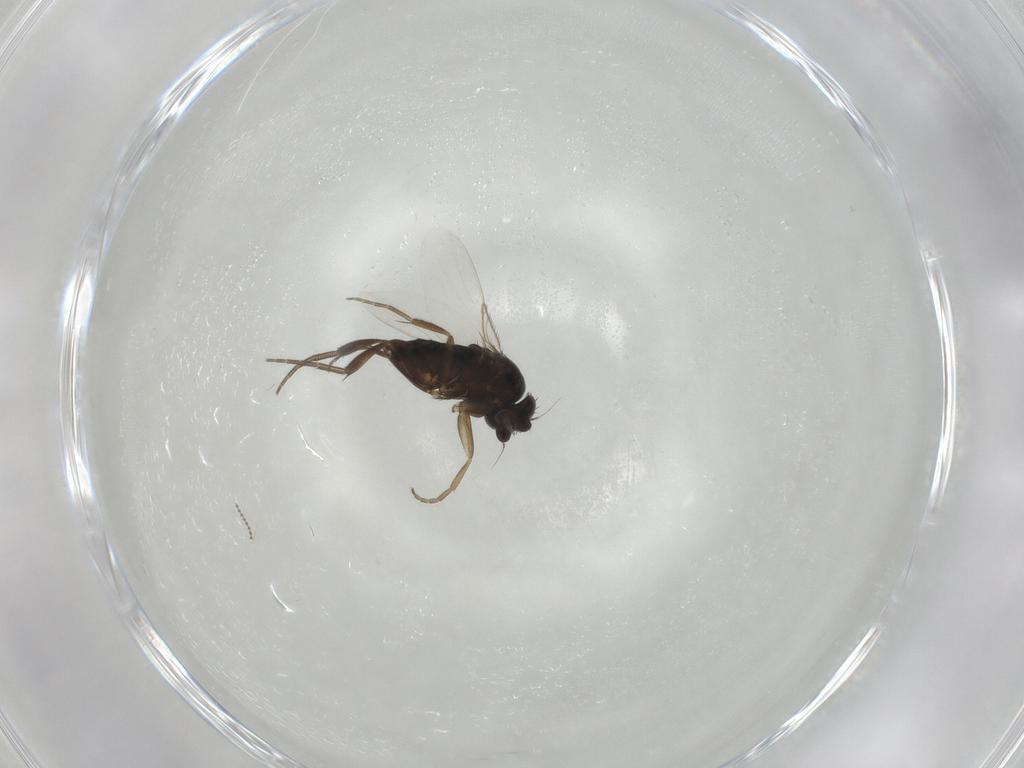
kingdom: Animalia
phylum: Arthropoda
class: Insecta
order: Diptera
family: Phoridae
